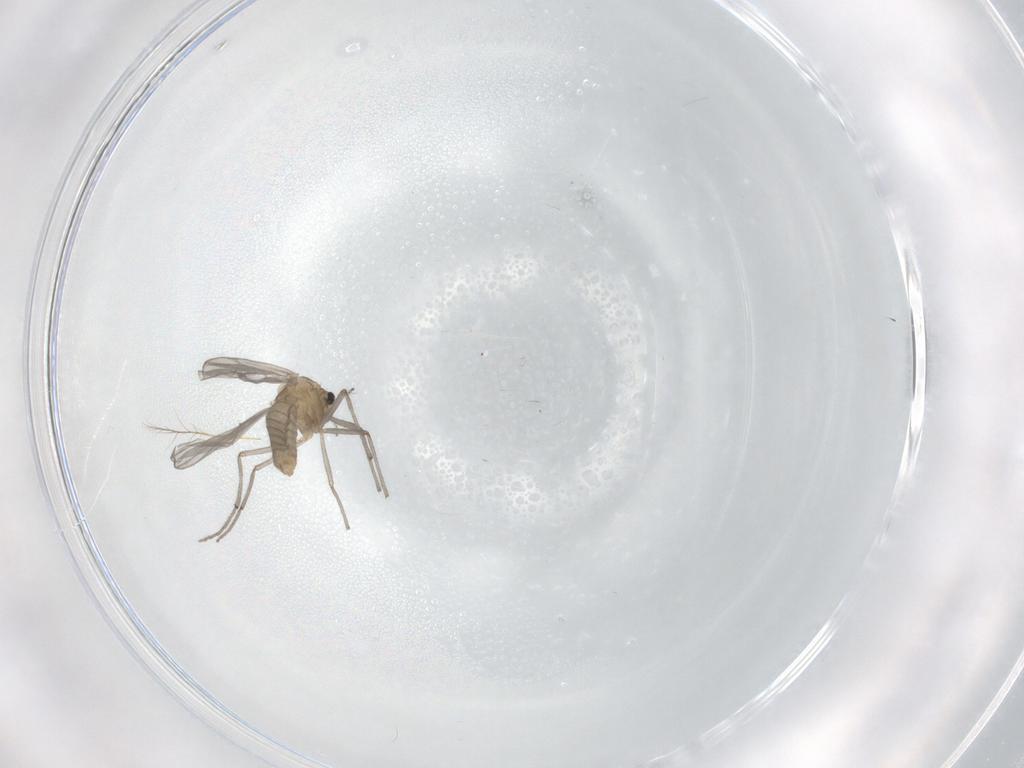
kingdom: Animalia
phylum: Arthropoda
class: Insecta
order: Diptera
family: Chironomidae
